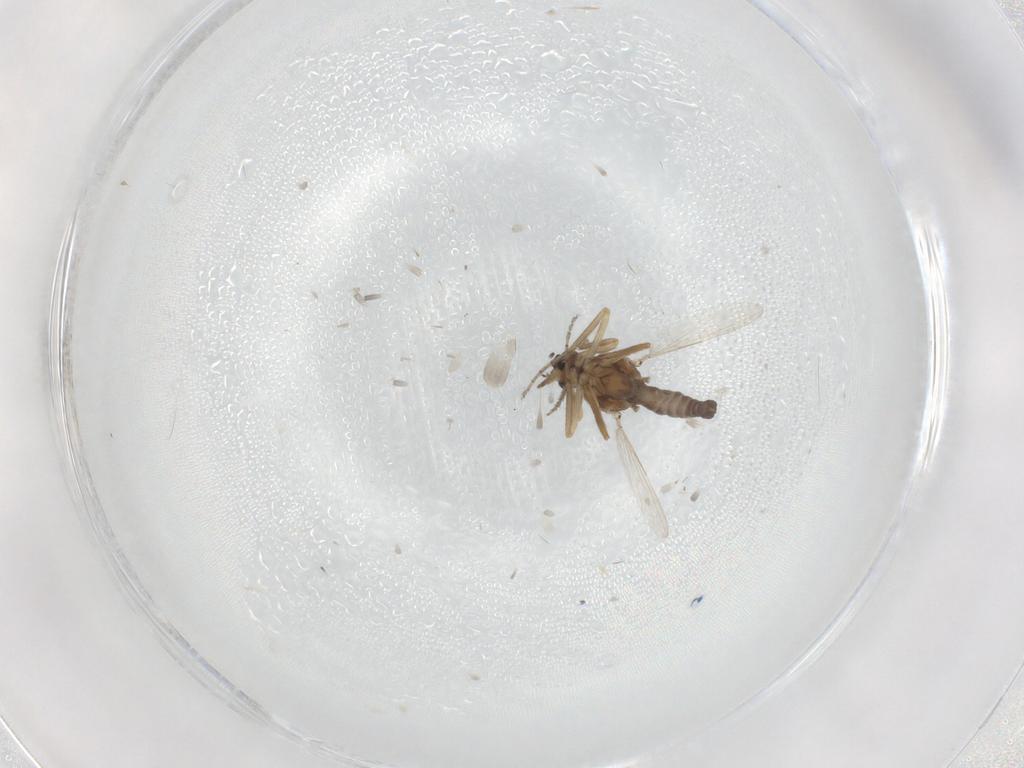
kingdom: Animalia
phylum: Arthropoda
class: Insecta
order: Diptera
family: Ceratopogonidae
